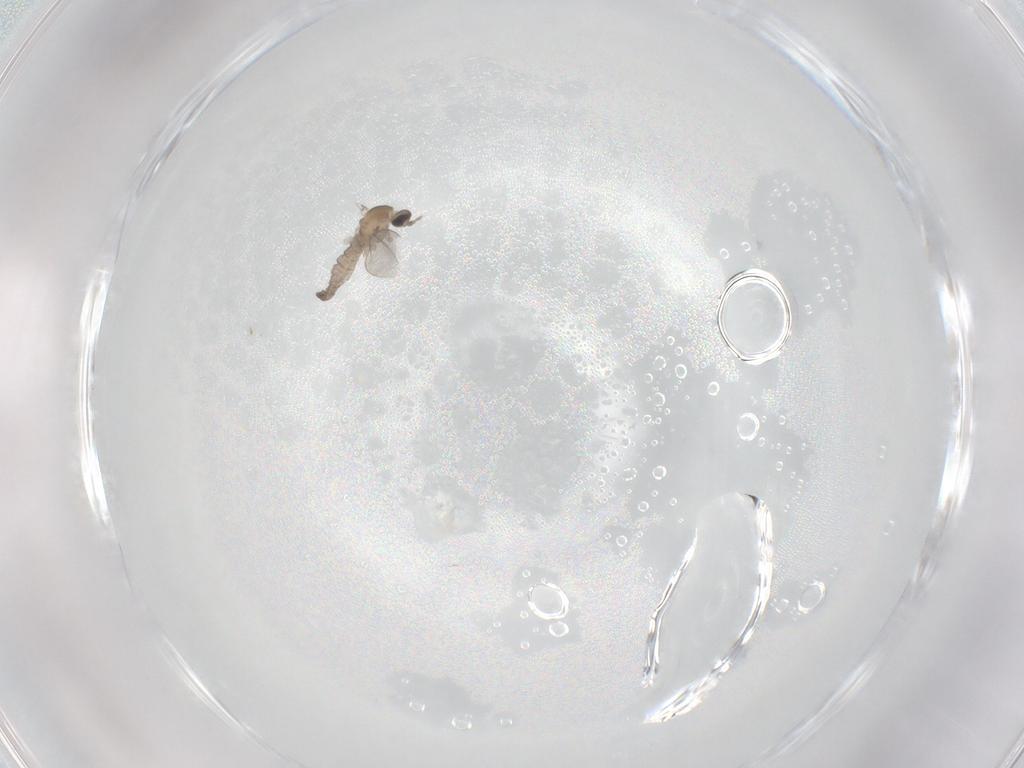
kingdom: Animalia
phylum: Arthropoda
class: Insecta
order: Diptera
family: Cecidomyiidae
